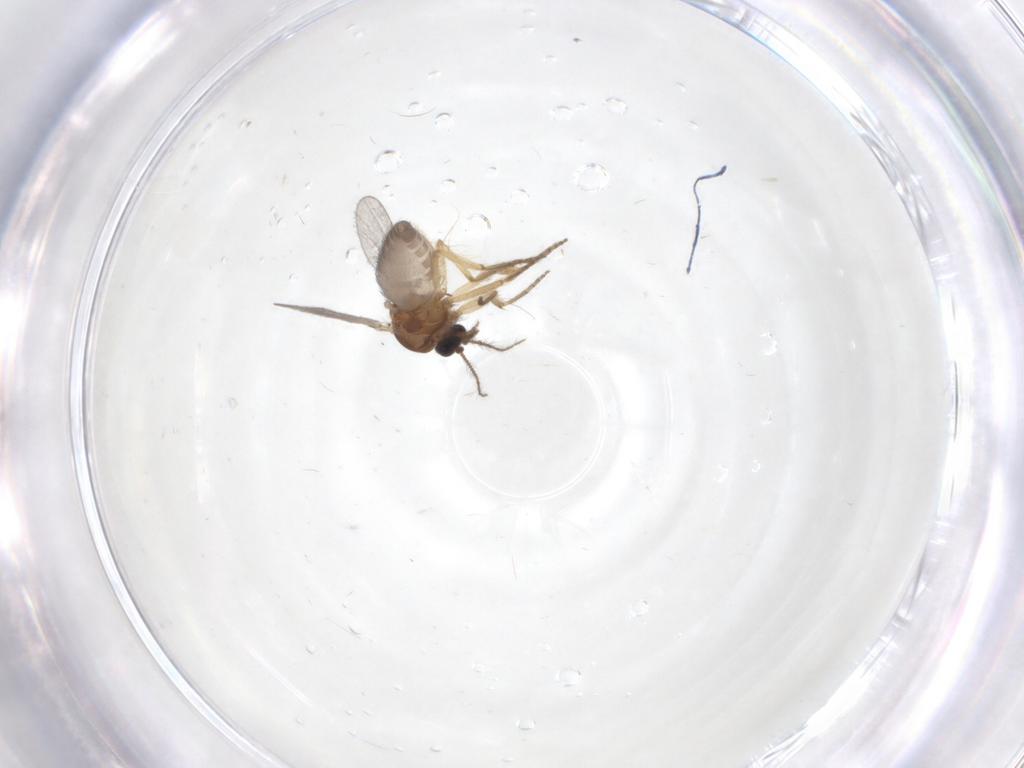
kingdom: Animalia
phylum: Arthropoda
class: Insecta
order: Diptera
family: Ceratopogonidae
